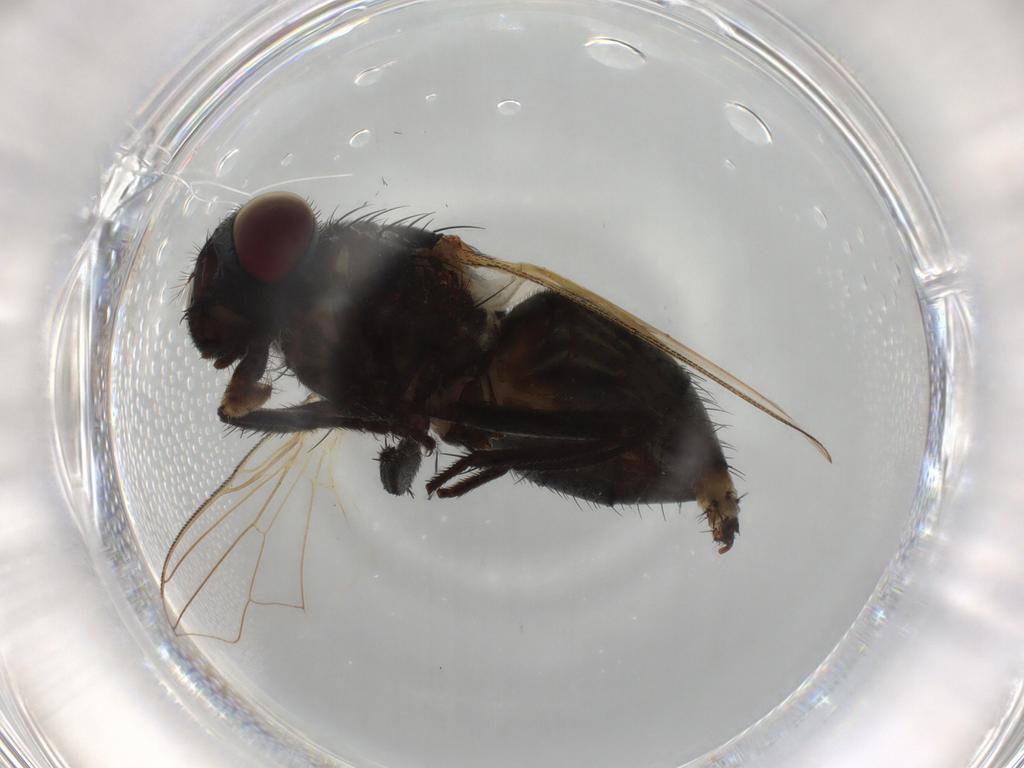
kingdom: Animalia
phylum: Arthropoda
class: Insecta
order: Diptera
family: Muscidae
